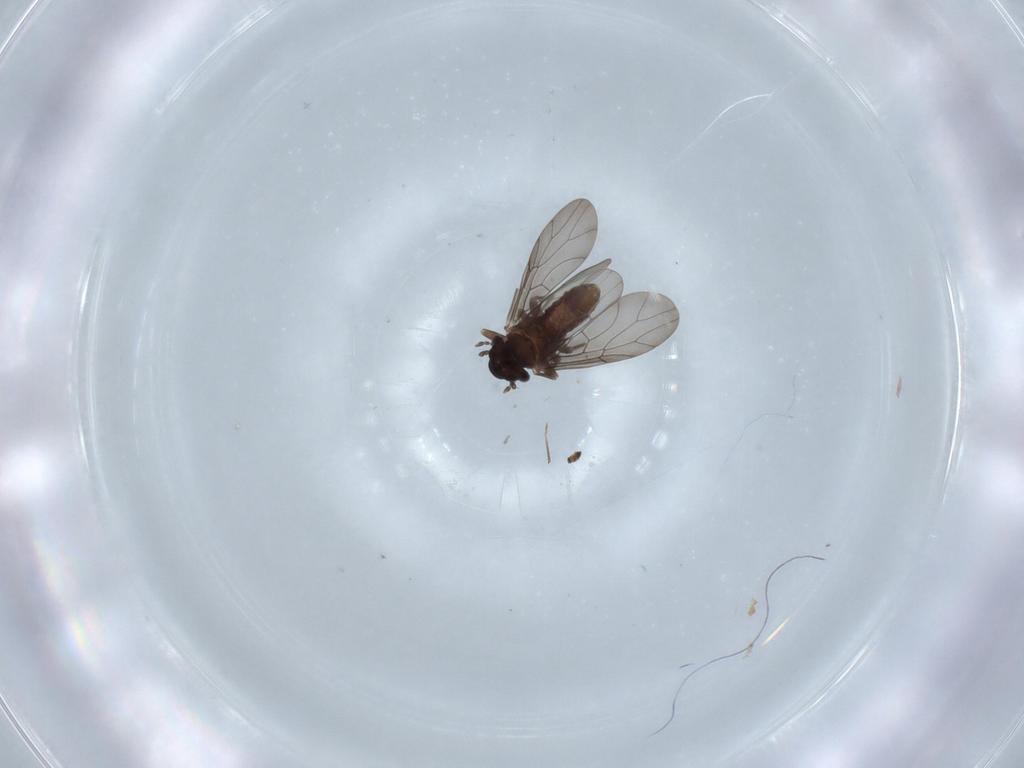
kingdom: Animalia
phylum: Arthropoda
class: Insecta
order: Psocodea
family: Lepidopsocidae
